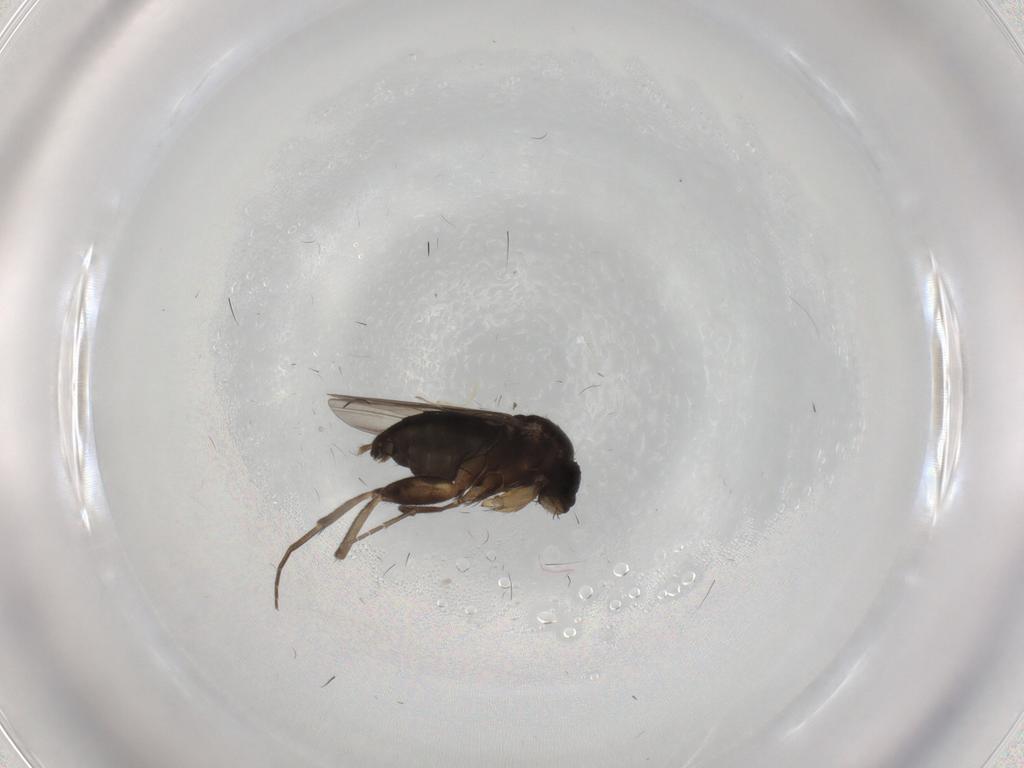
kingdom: Animalia
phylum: Arthropoda
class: Insecta
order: Diptera
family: Phoridae
